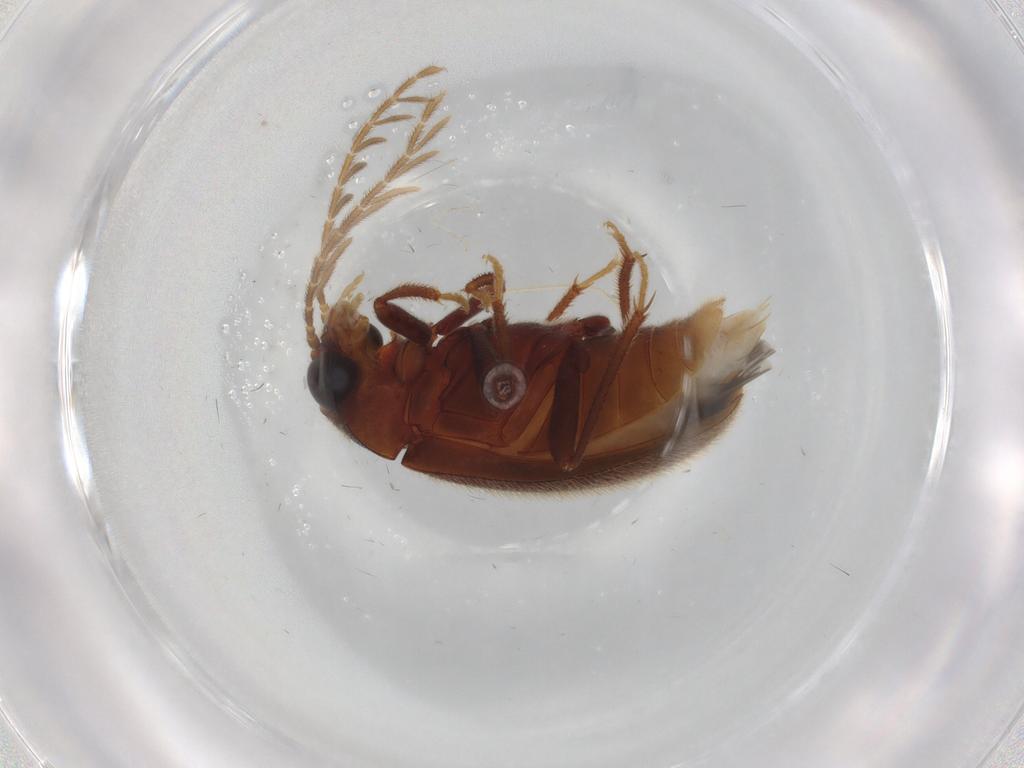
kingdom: Animalia
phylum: Arthropoda
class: Insecta
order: Coleoptera
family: Ptilodactylidae
